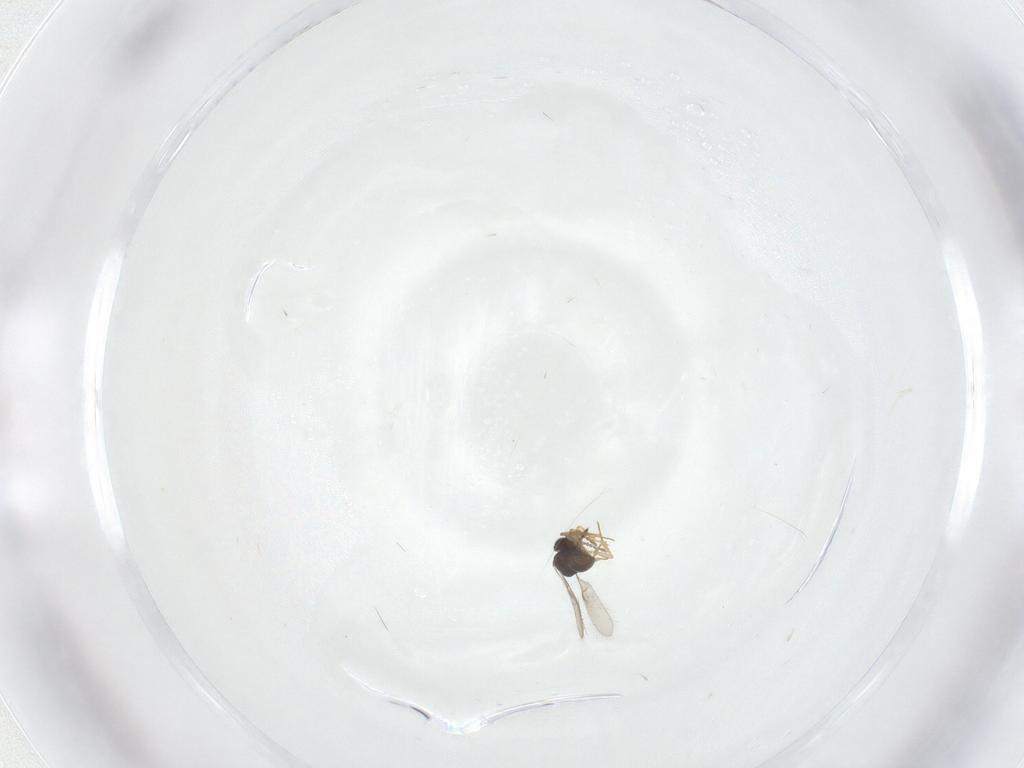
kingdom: Animalia
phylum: Arthropoda
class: Insecta
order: Hymenoptera
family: Scelionidae
